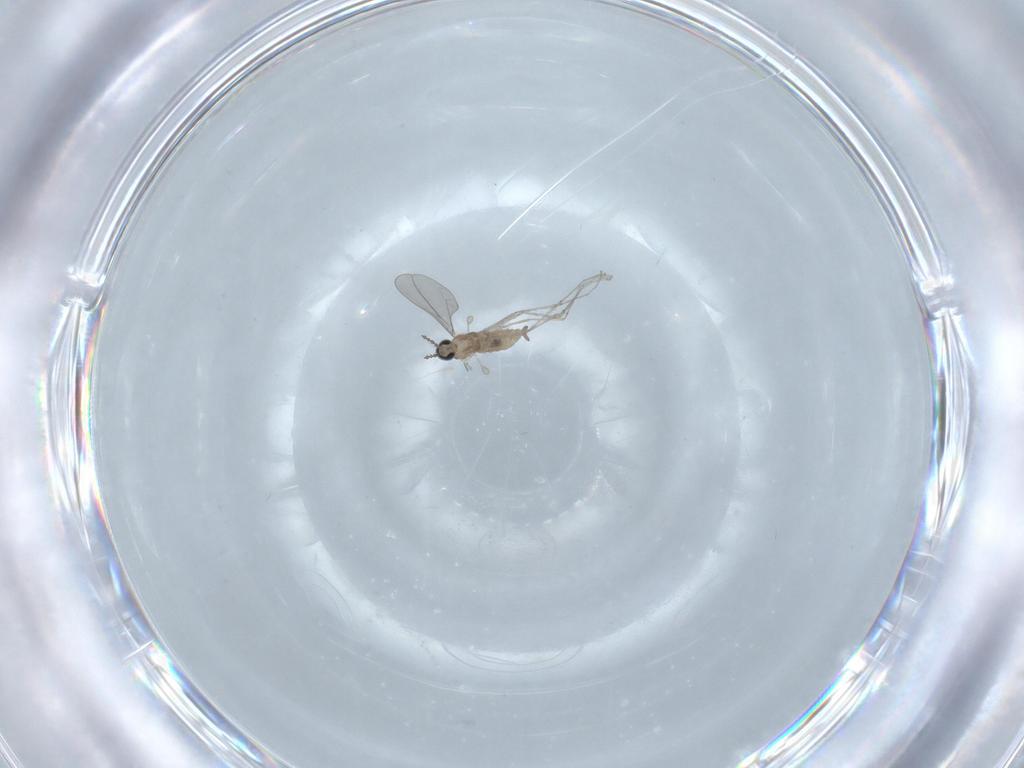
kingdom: Animalia
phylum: Arthropoda
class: Insecta
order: Diptera
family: Cecidomyiidae
